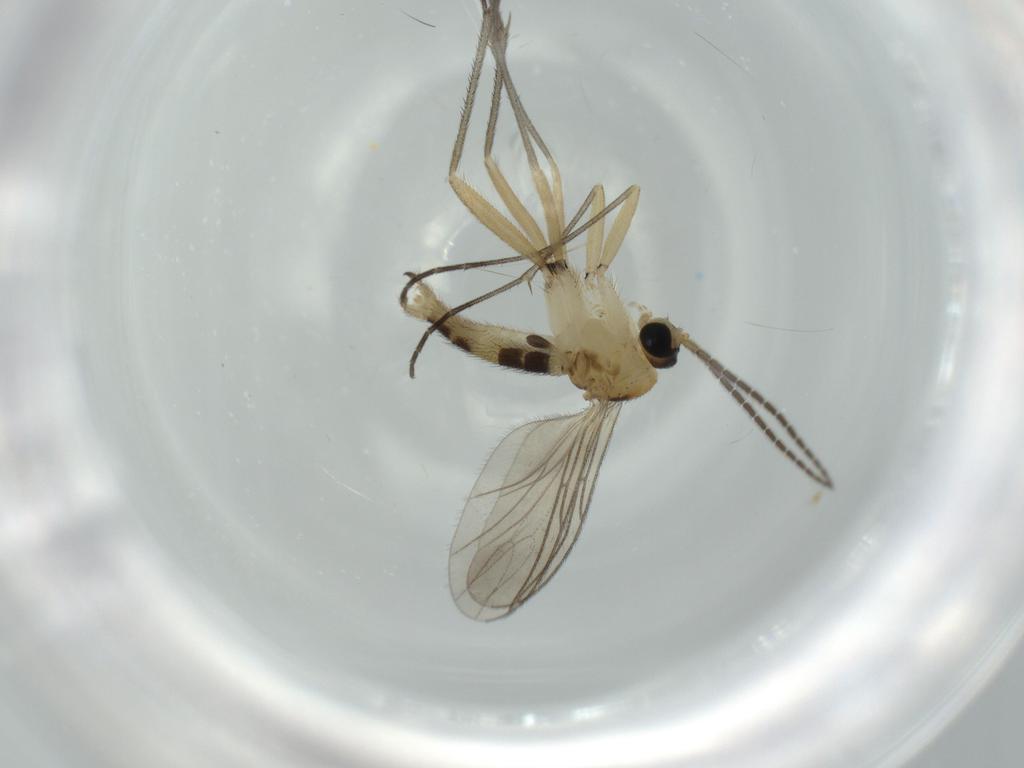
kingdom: Animalia
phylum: Arthropoda
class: Insecta
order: Diptera
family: Sciaridae
